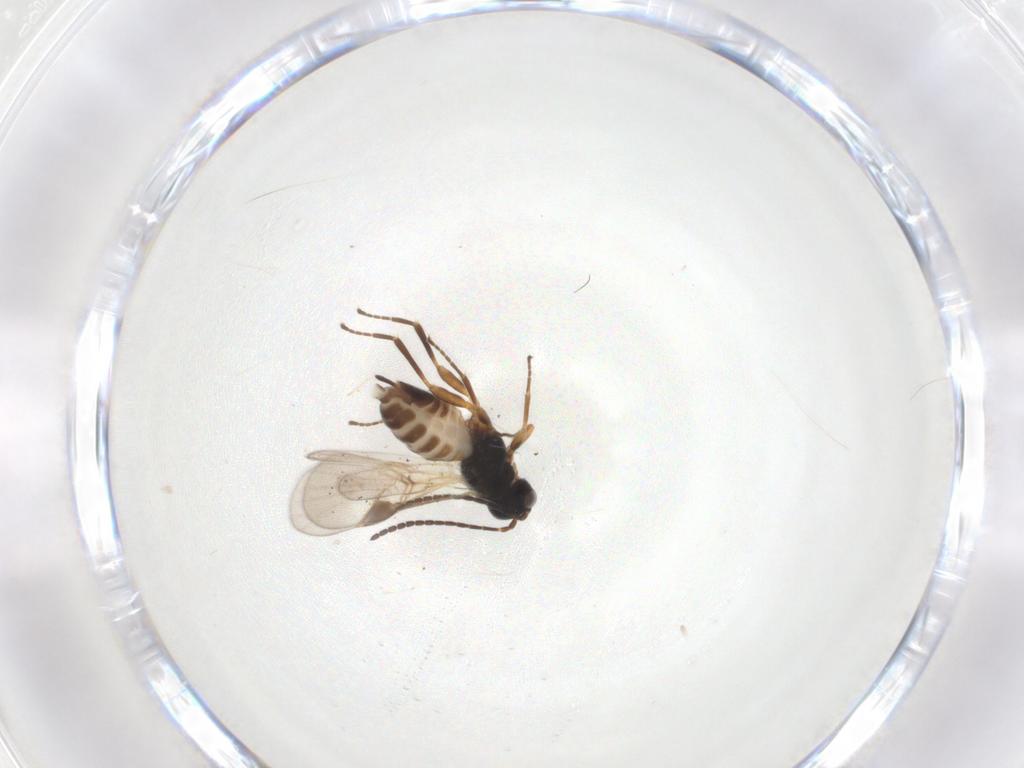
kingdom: Animalia
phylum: Arthropoda
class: Insecta
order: Hymenoptera
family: Braconidae
